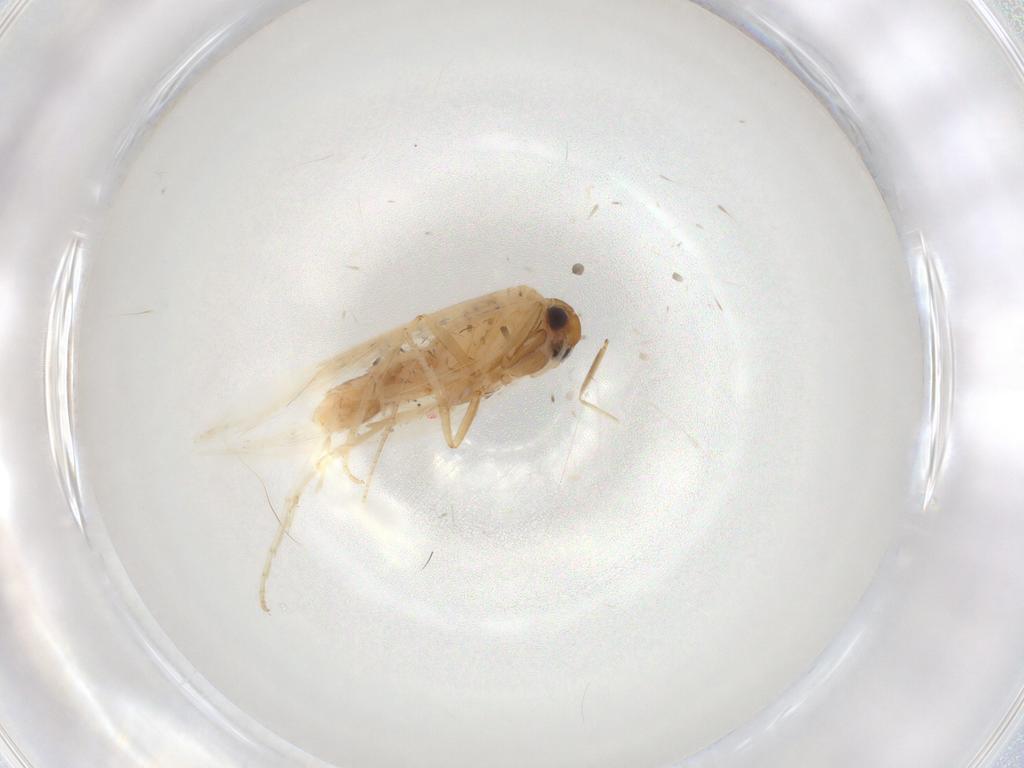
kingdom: Animalia
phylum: Arthropoda
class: Insecta
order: Lepidoptera
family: Gelechiidae
